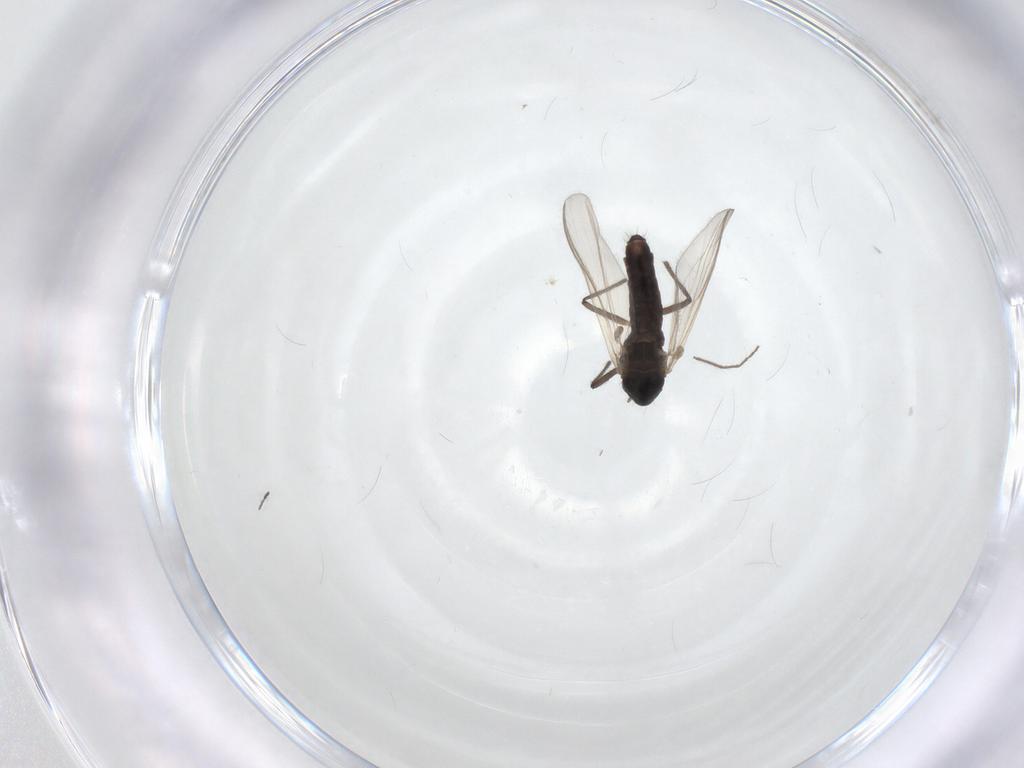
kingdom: Animalia
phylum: Arthropoda
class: Insecta
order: Diptera
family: Chironomidae
